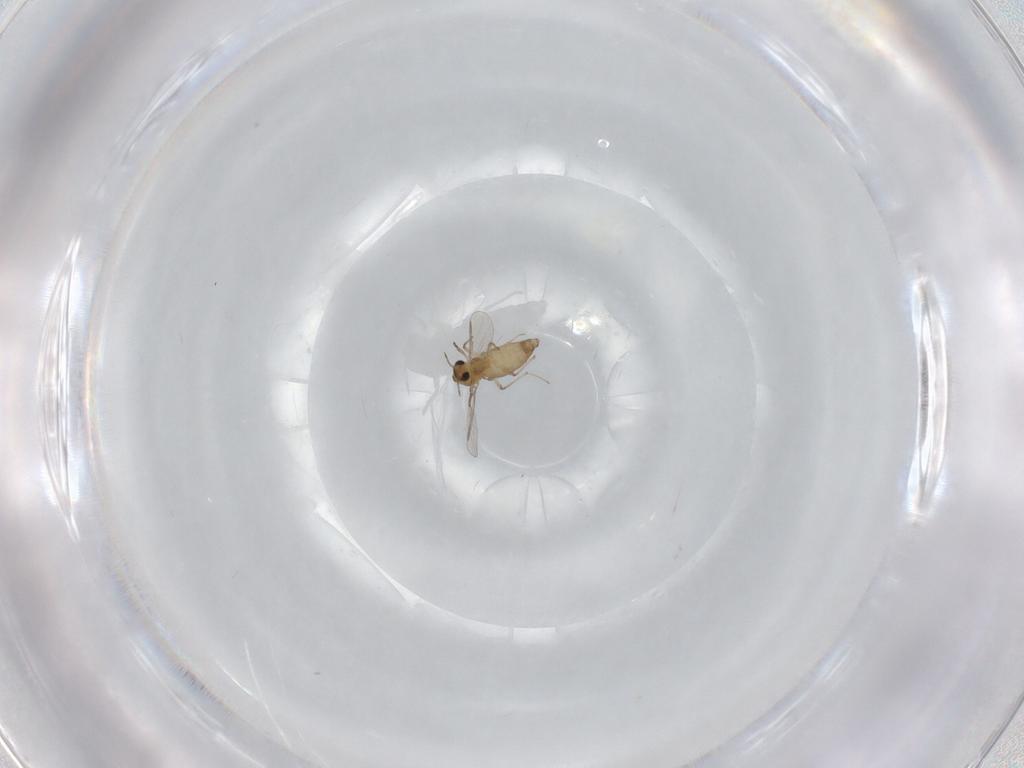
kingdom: Animalia
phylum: Arthropoda
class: Insecta
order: Diptera
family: Chironomidae
